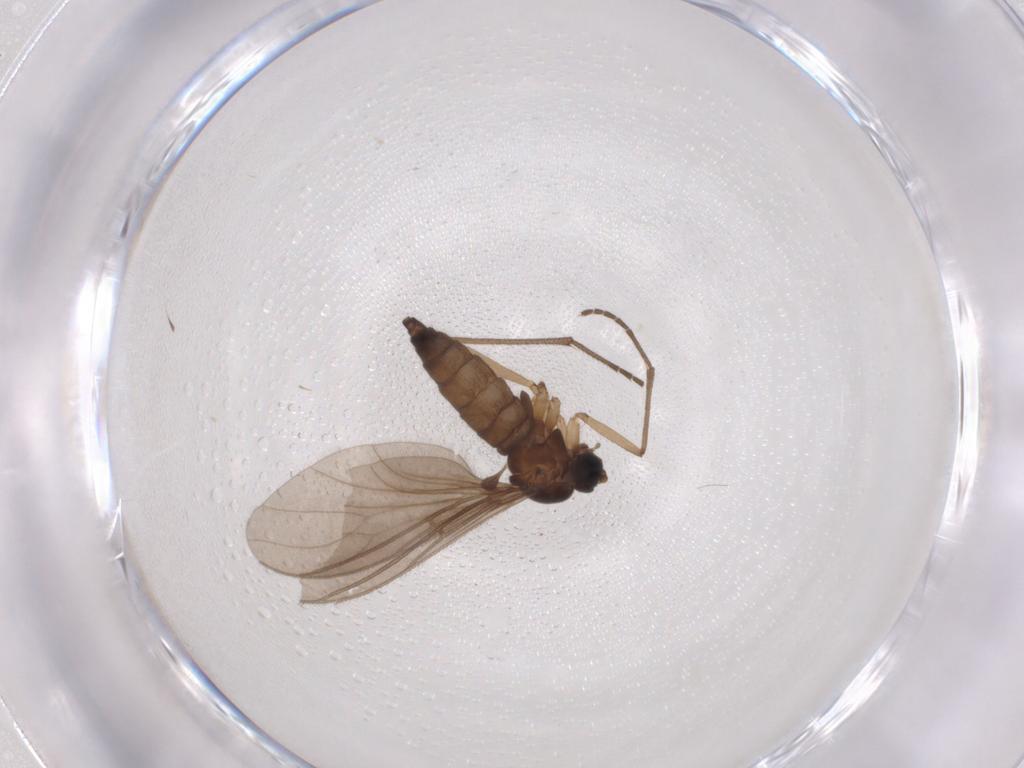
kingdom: Animalia
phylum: Arthropoda
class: Insecta
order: Diptera
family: Sciaridae
